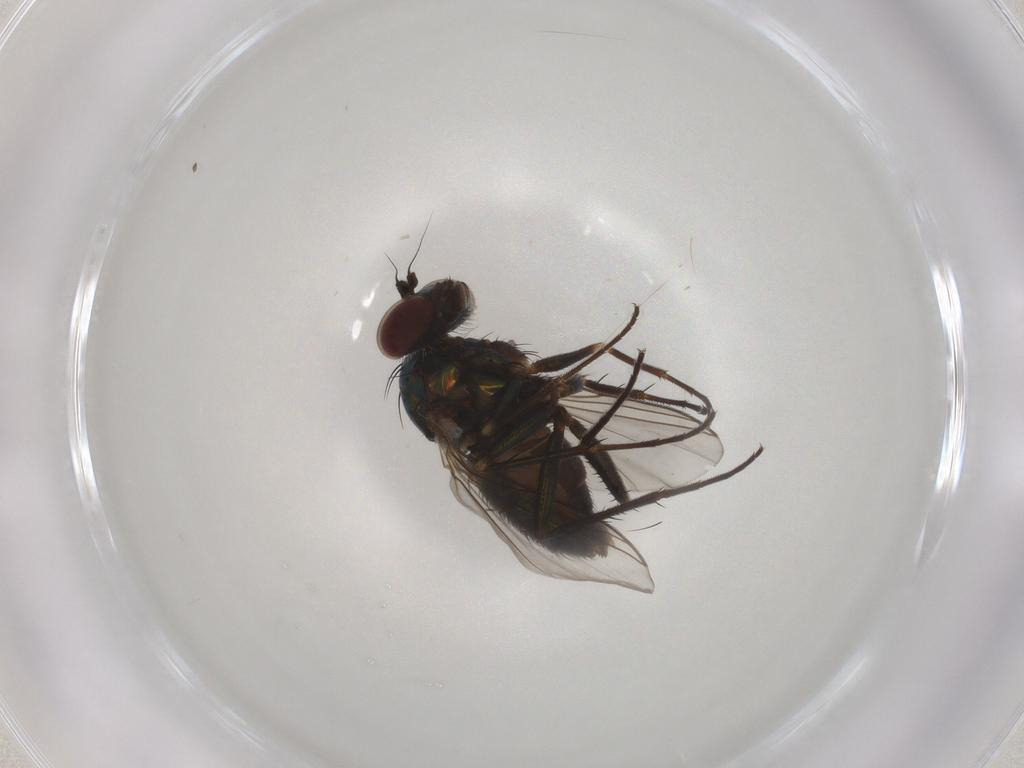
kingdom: Animalia
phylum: Arthropoda
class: Insecta
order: Diptera
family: Dolichopodidae
